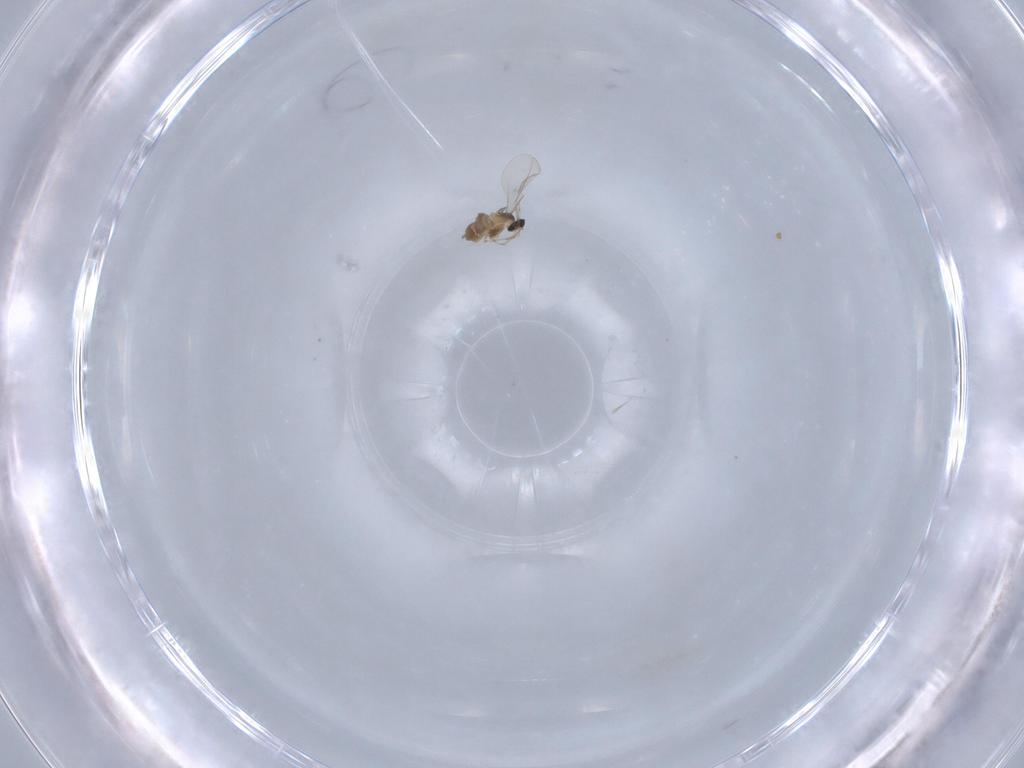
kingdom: Animalia
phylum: Arthropoda
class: Insecta
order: Diptera
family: Cecidomyiidae
